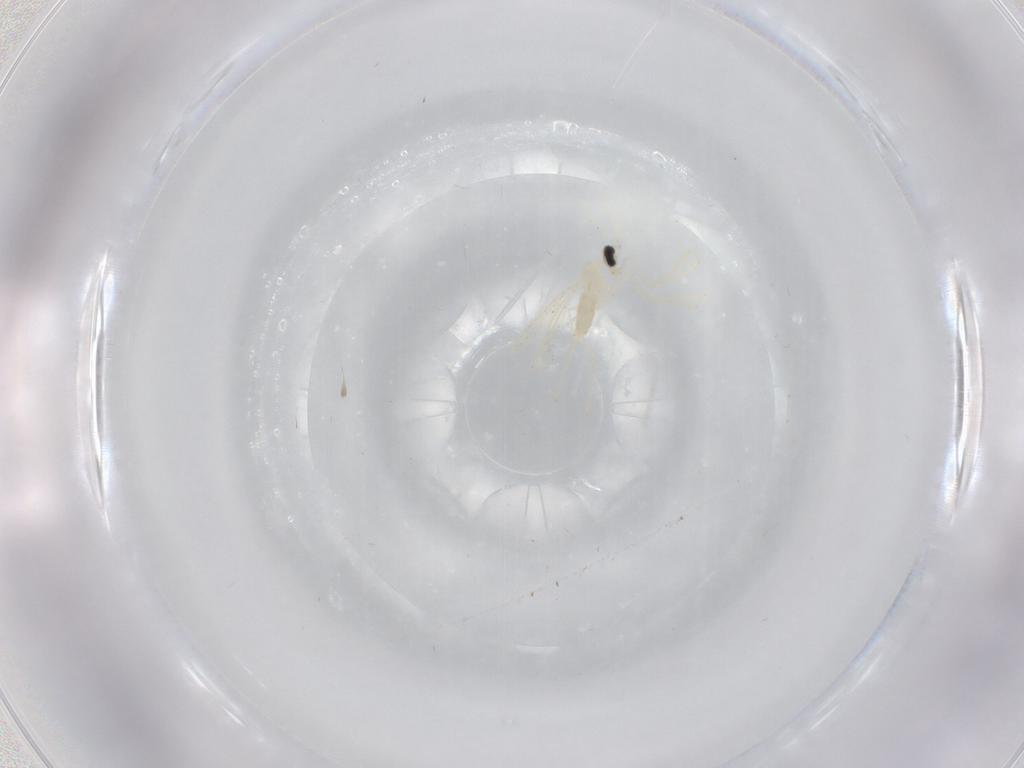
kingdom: Animalia
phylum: Arthropoda
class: Insecta
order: Diptera
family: Cecidomyiidae
